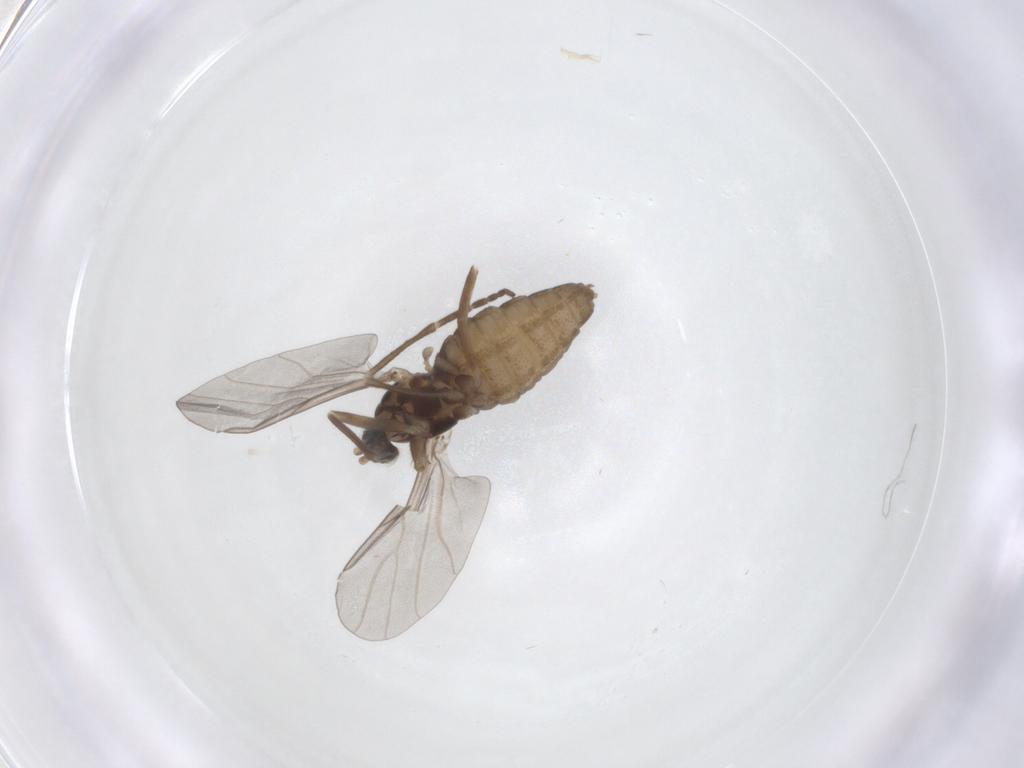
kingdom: Animalia
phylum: Arthropoda
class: Insecta
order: Diptera
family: Cecidomyiidae
